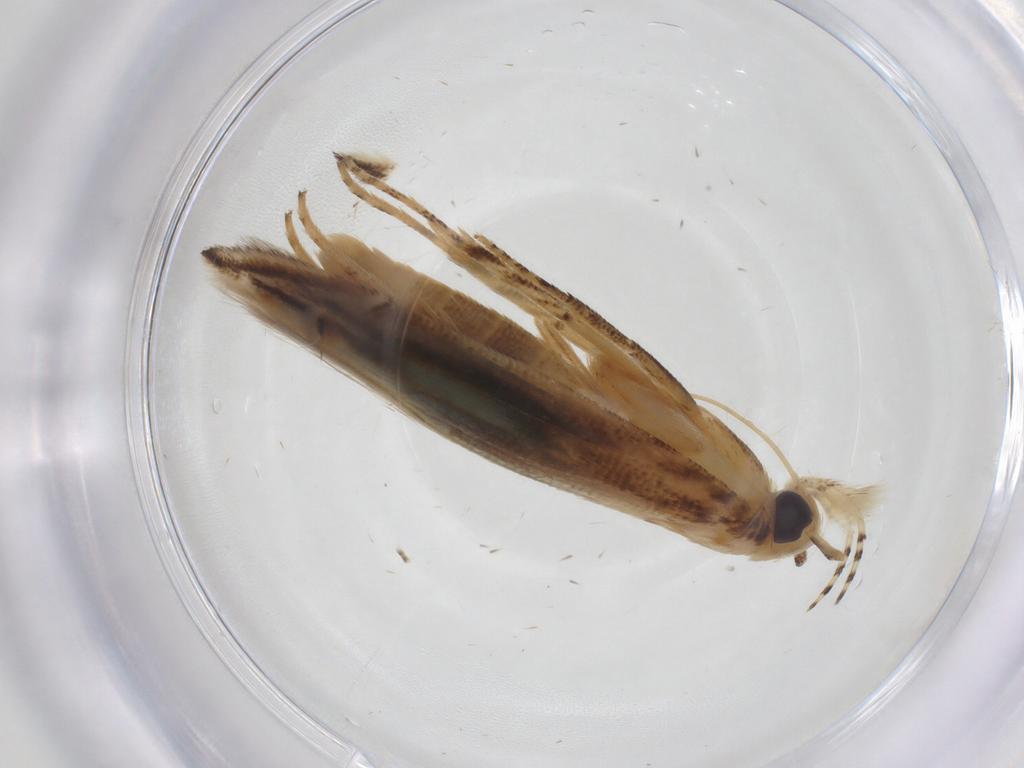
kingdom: Animalia
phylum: Arthropoda
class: Insecta
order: Lepidoptera
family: Momphidae
